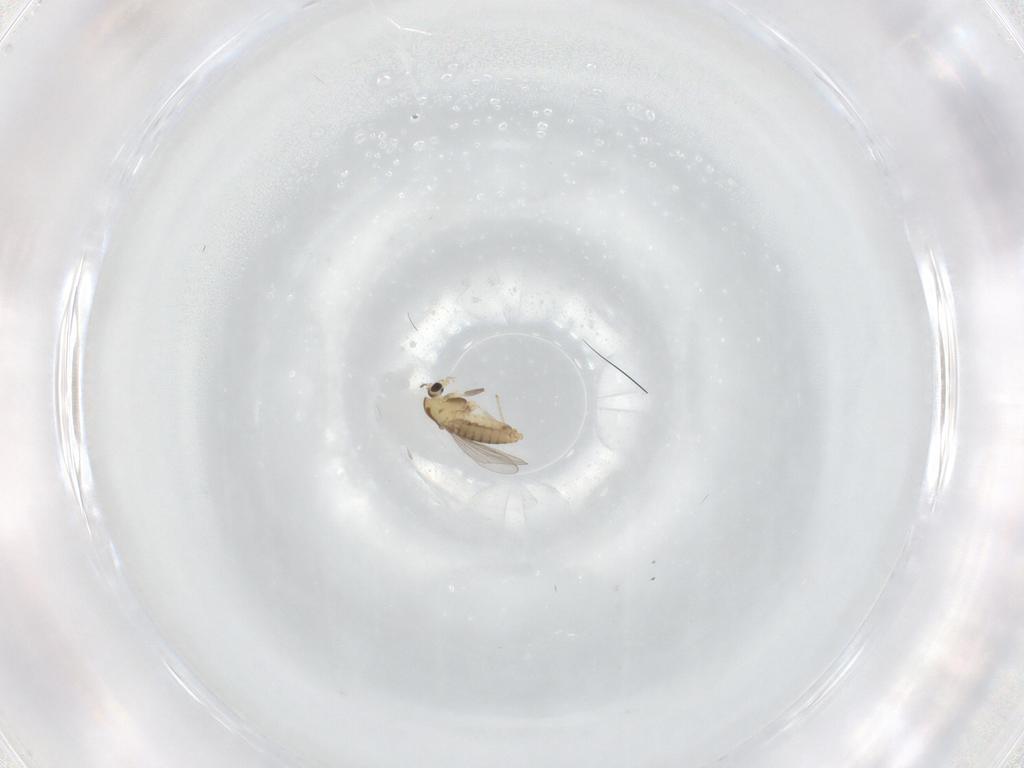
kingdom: Animalia
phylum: Arthropoda
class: Insecta
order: Diptera
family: Chironomidae
